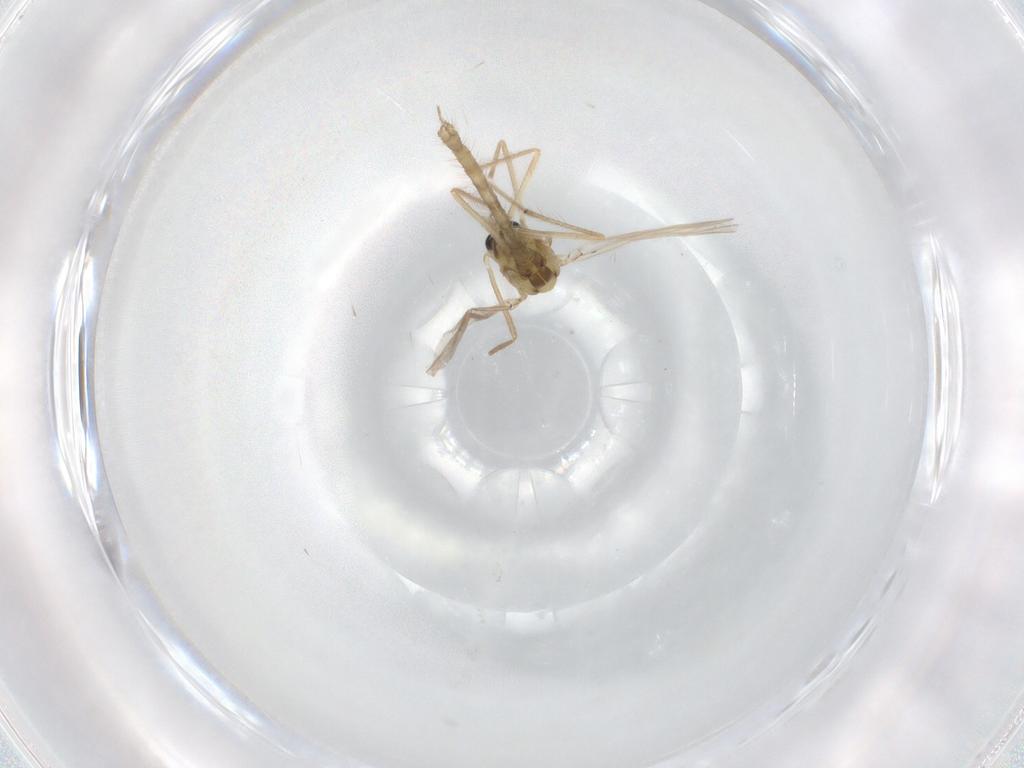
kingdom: Animalia
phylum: Arthropoda
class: Insecta
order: Diptera
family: Chironomidae
